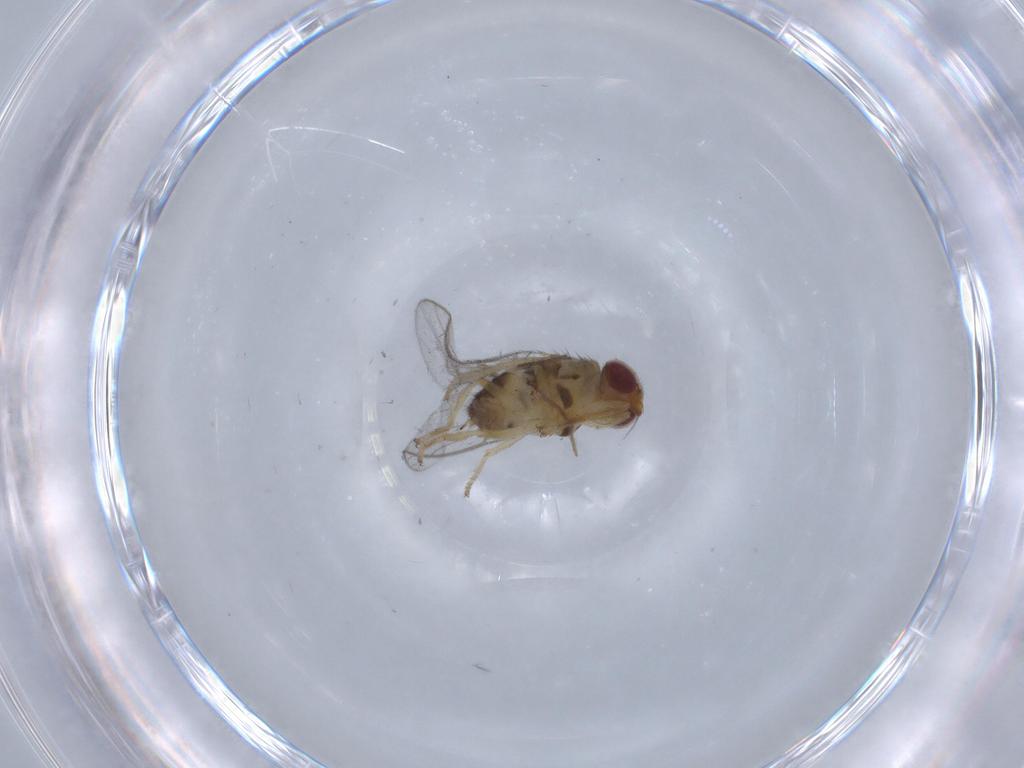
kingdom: Animalia
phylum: Arthropoda
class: Insecta
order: Diptera
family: Chloropidae
